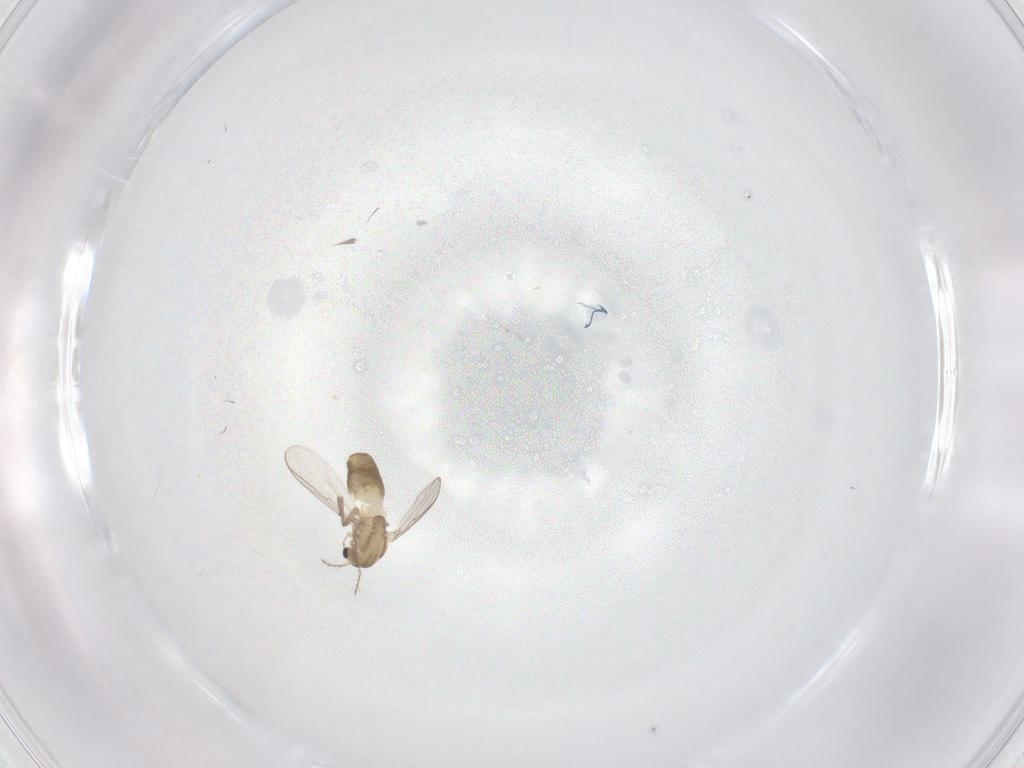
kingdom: Animalia
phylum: Arthropoda
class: Insecta
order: Diptera
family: Chironomidae
